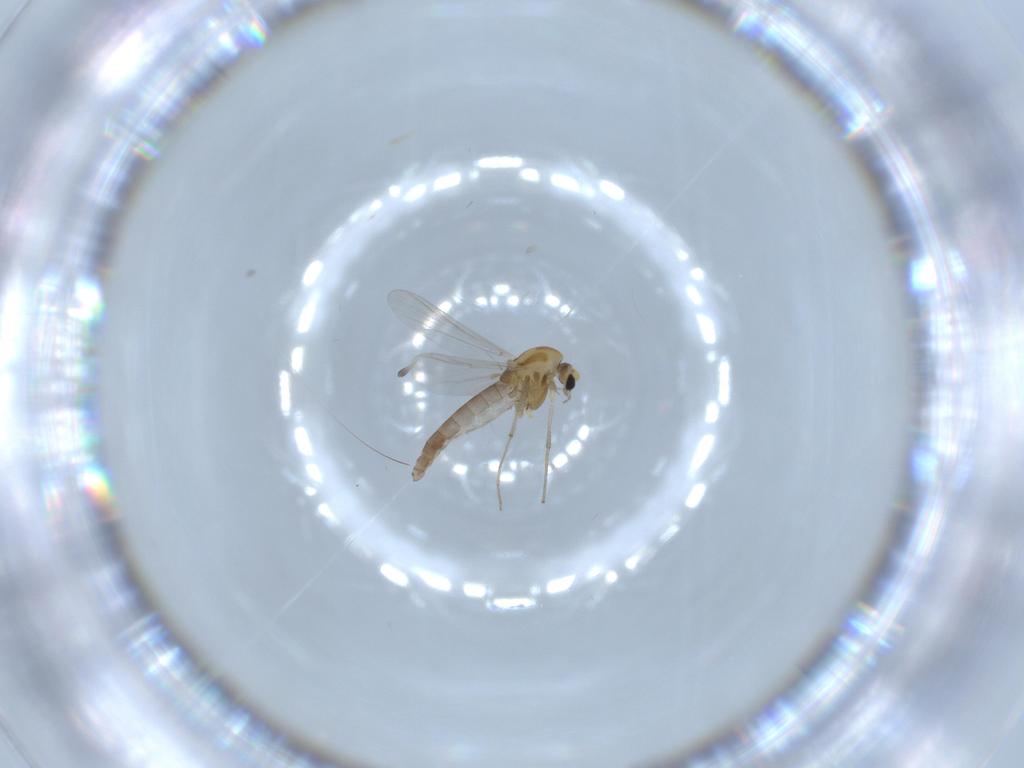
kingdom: Animalia
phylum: Arthropoda
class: Insecta
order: Diptera
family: Chironomidae
